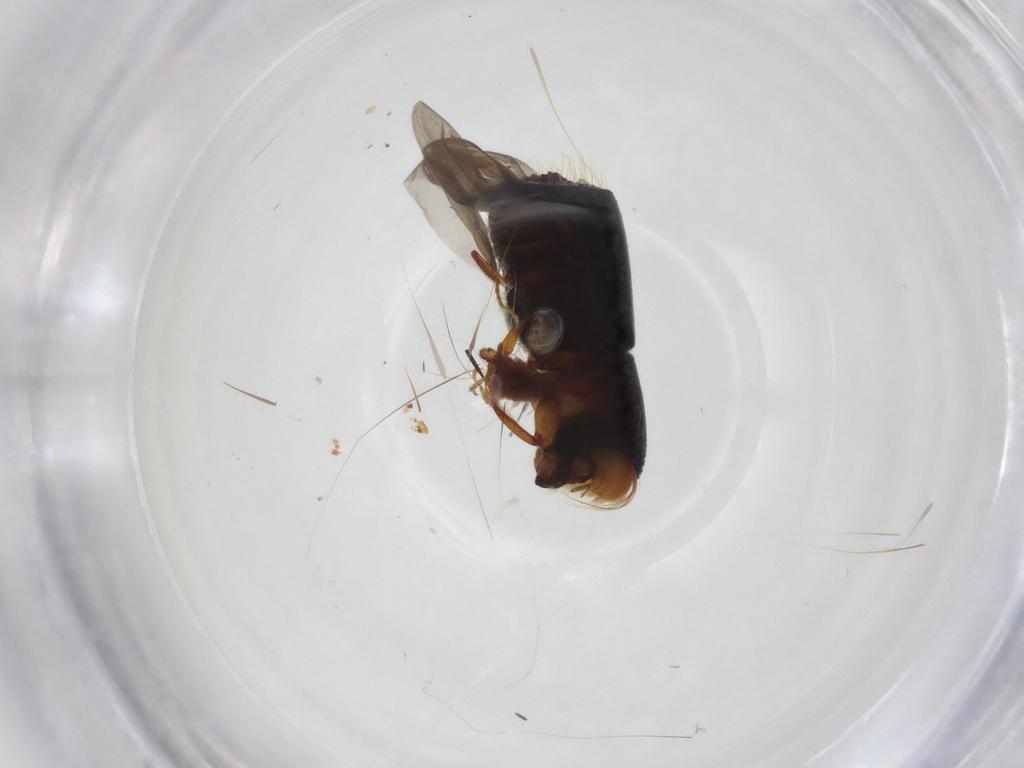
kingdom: Animalia
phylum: Arthropoda
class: Insecta
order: Coleoptera
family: Curculionidae
